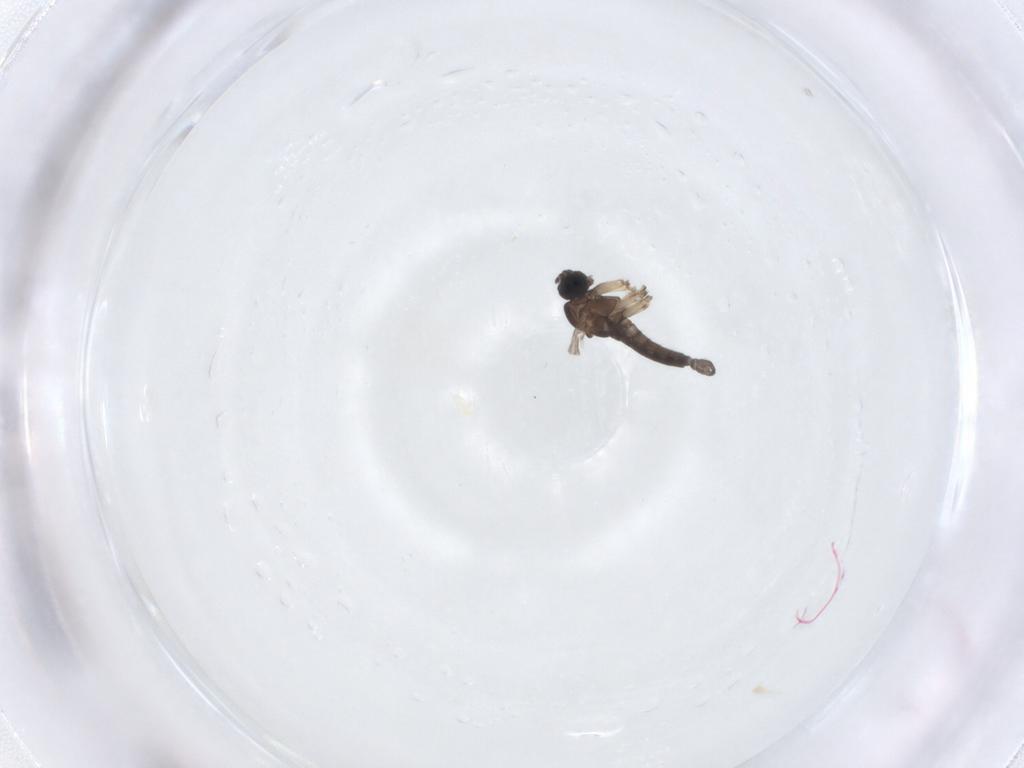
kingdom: Animalia
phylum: Arthropoda
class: Insecta
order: Diptera
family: Sciaridae
